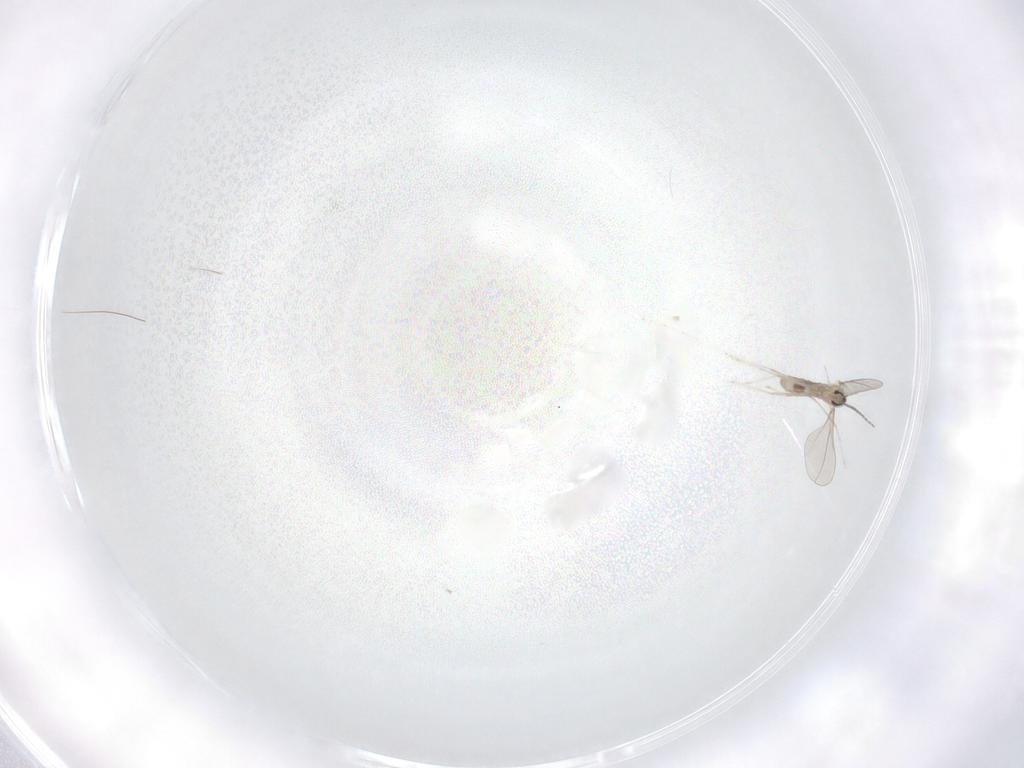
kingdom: Animalia
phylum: Arthropoda
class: Insecta
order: Diptera
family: Cecidomyiidae
